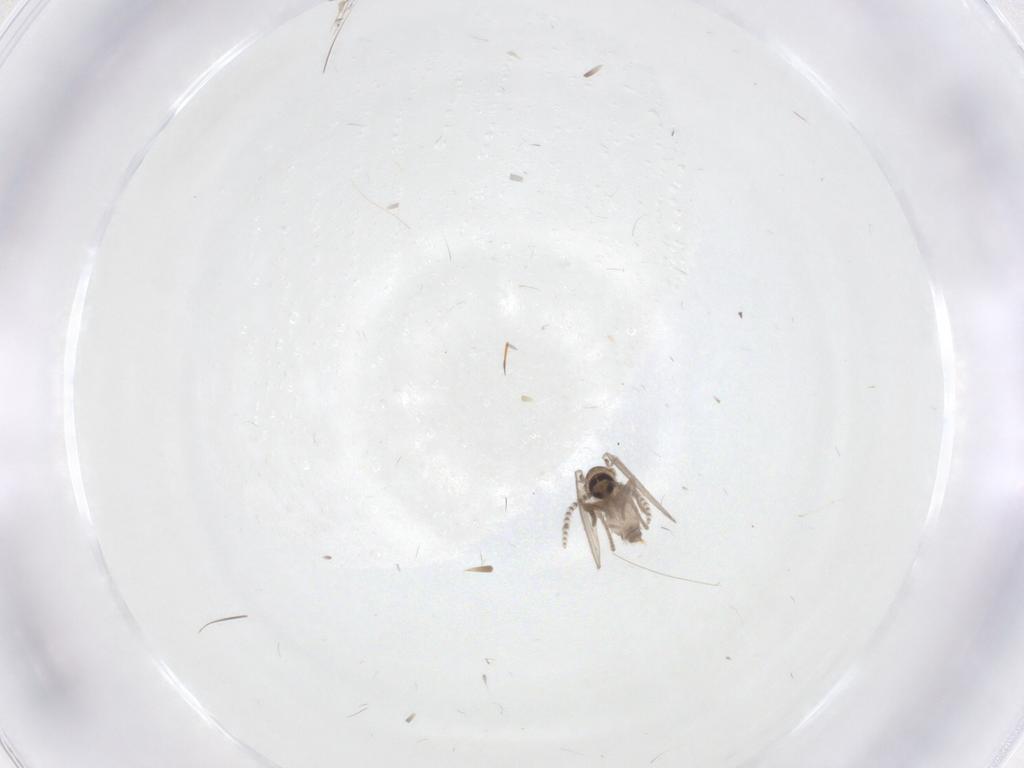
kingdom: Animalia
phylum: Arthropoda
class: Insecta
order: Diptera
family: Psychodidae
